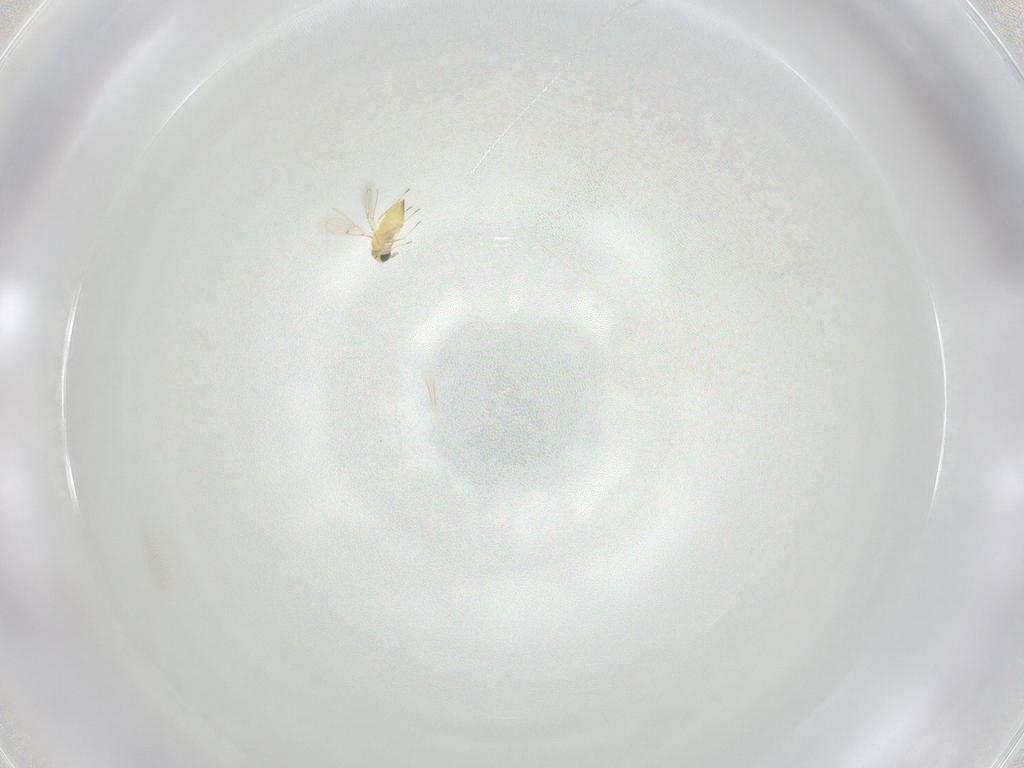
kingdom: Animalia
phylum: Arthropoda
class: Insecta
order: Hymenoptera
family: Trichogrammatidae
